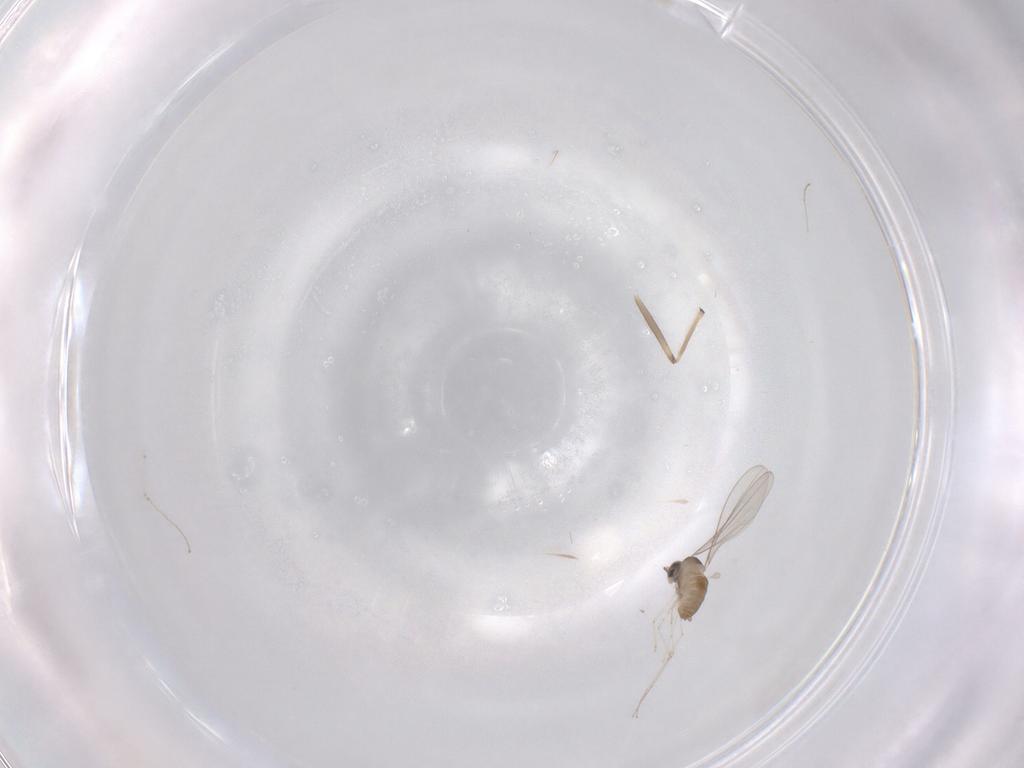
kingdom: Animalia
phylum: Arthropoda
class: Insecta
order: Diptera
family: Cecidomyiidae
